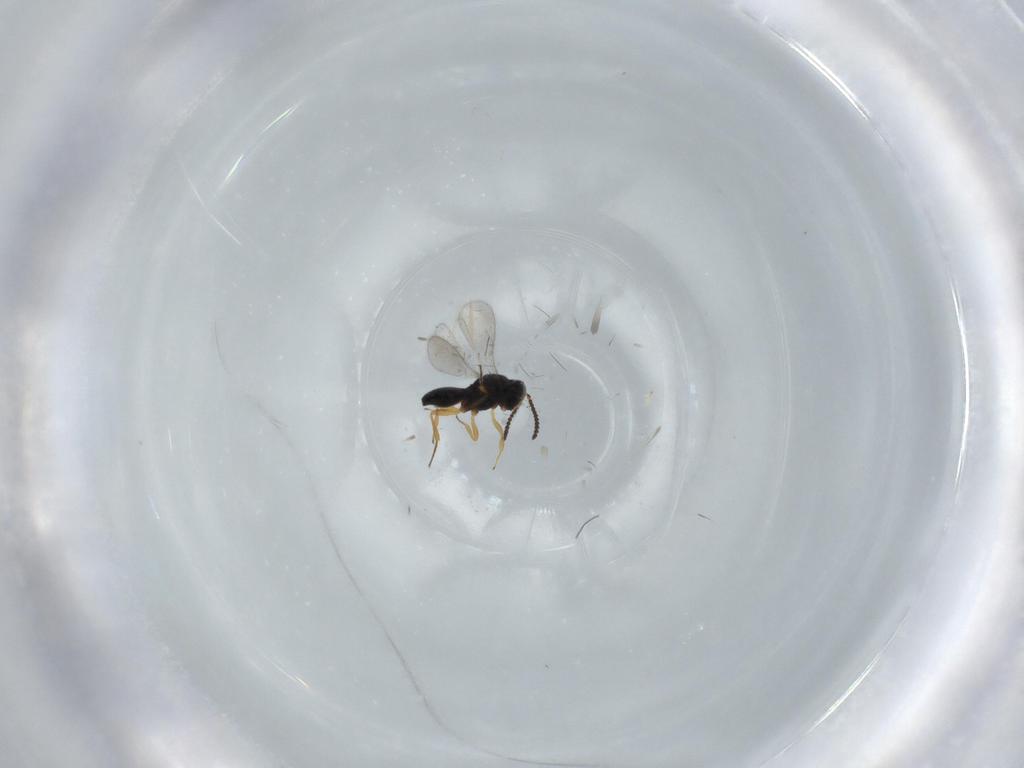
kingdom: Animalia
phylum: Arthropoda
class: Insecta
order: Hymenoptera
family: Scelionidae
